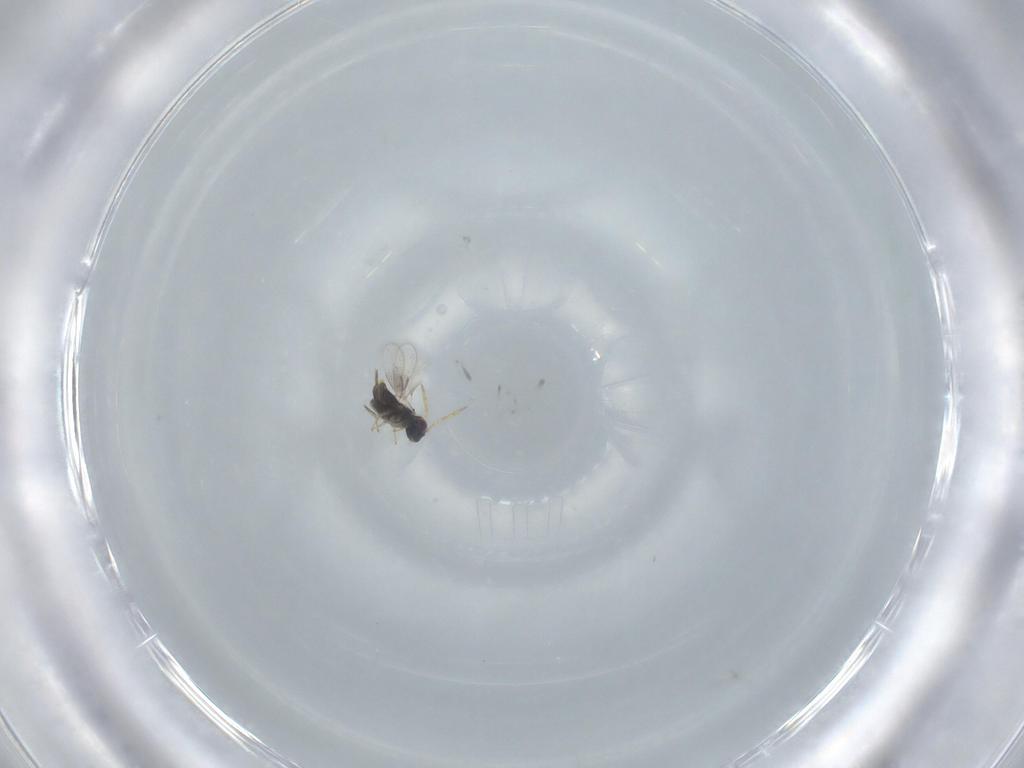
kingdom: Animalia
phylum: Arthropoda
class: Insecta
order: Hymenoptera
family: Aphelinidae
